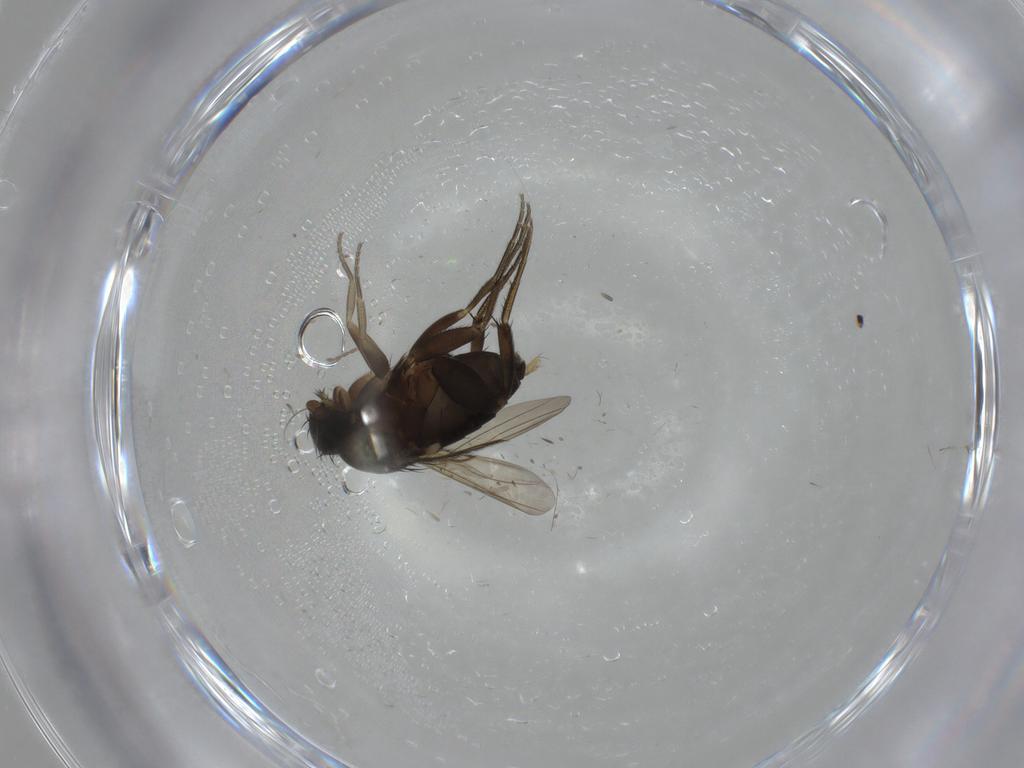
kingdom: Animalia
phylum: Arthropoda
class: Insecta
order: Diptera
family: Phoridae
